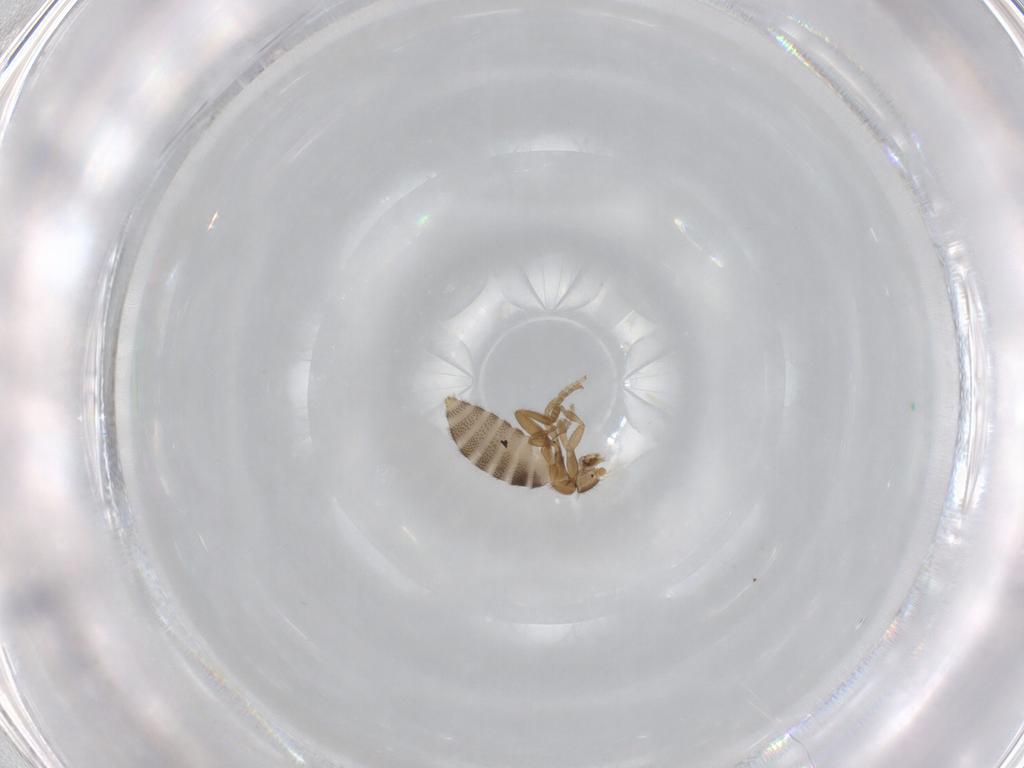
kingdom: Animalia
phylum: Arthropoda
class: Insecta
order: Diptera
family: Phoridae
